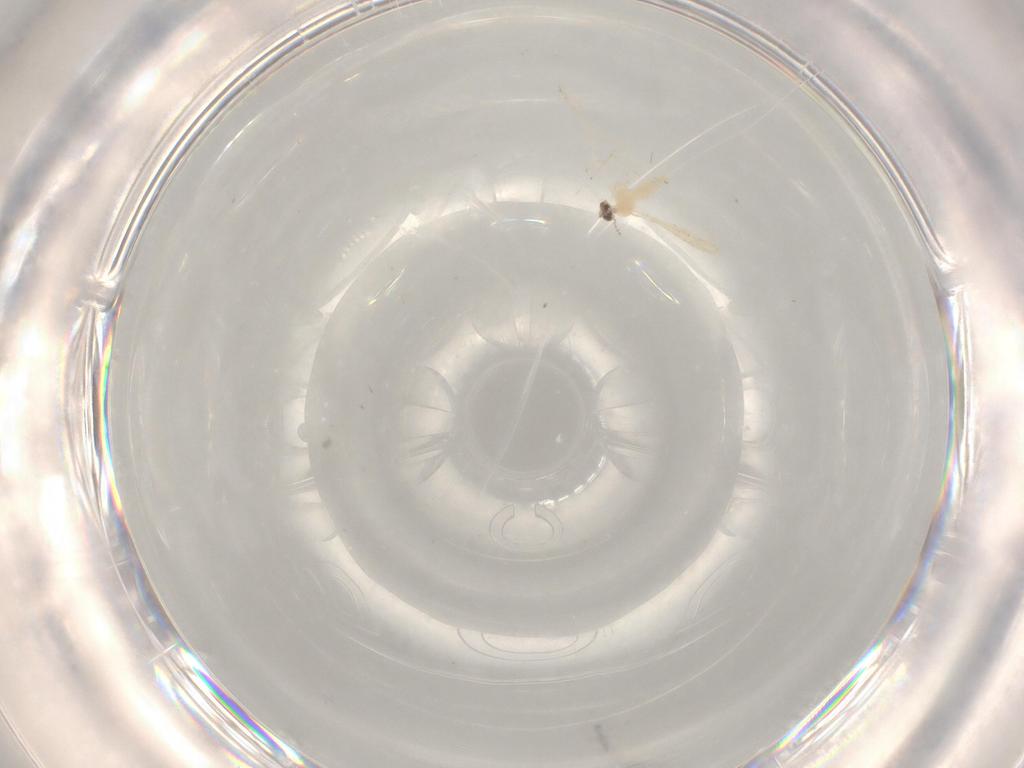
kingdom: Animalia
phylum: Arthropoda
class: Insecta
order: Diptera
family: Cecidomyiidae
